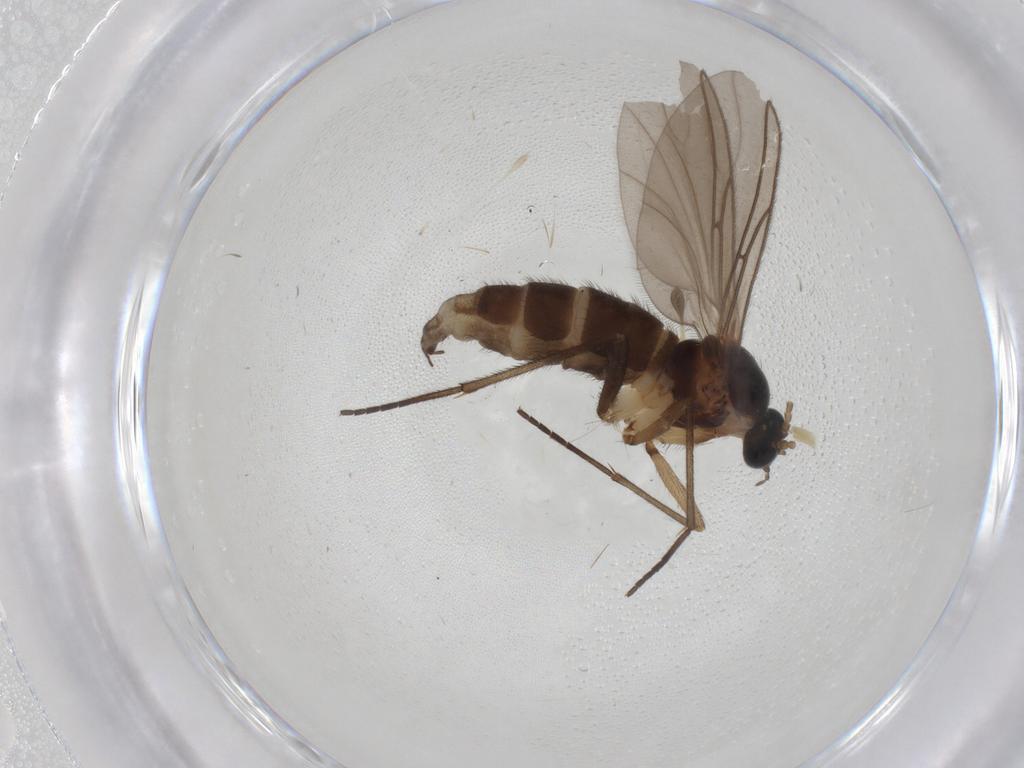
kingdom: Animalia
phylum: Arthropoda
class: Insecta
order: Diptera
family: Sciaridae
